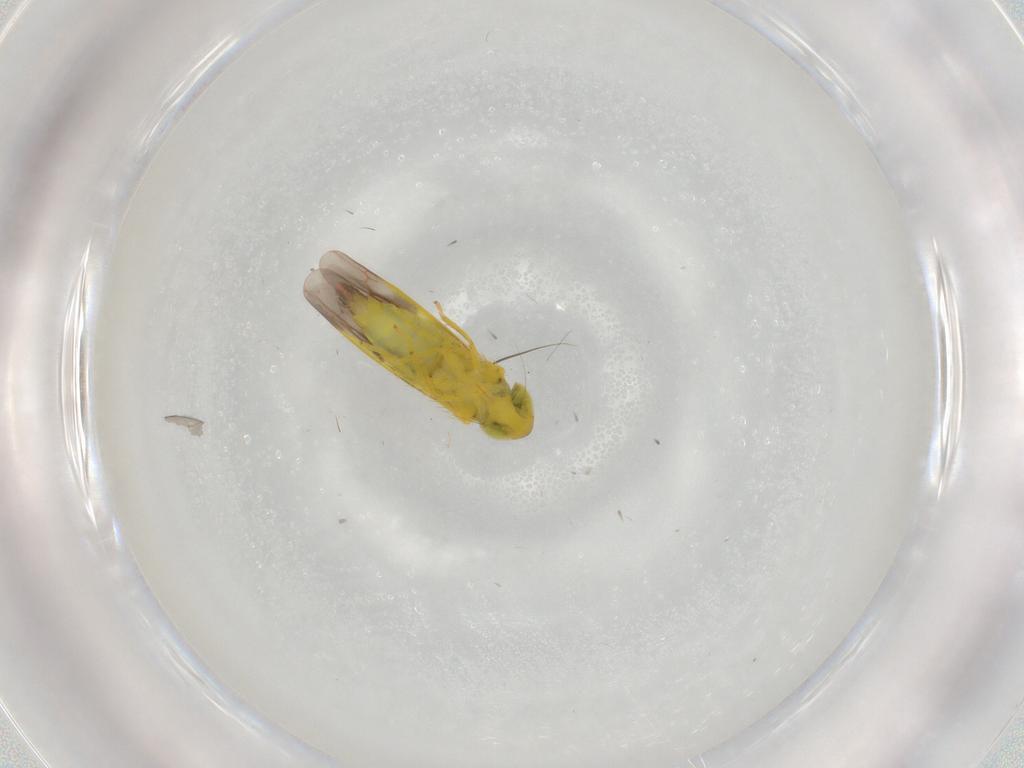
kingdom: Animalia
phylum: Arthropoda
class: Insecta
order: Hemiptera
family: Cicadellidae
